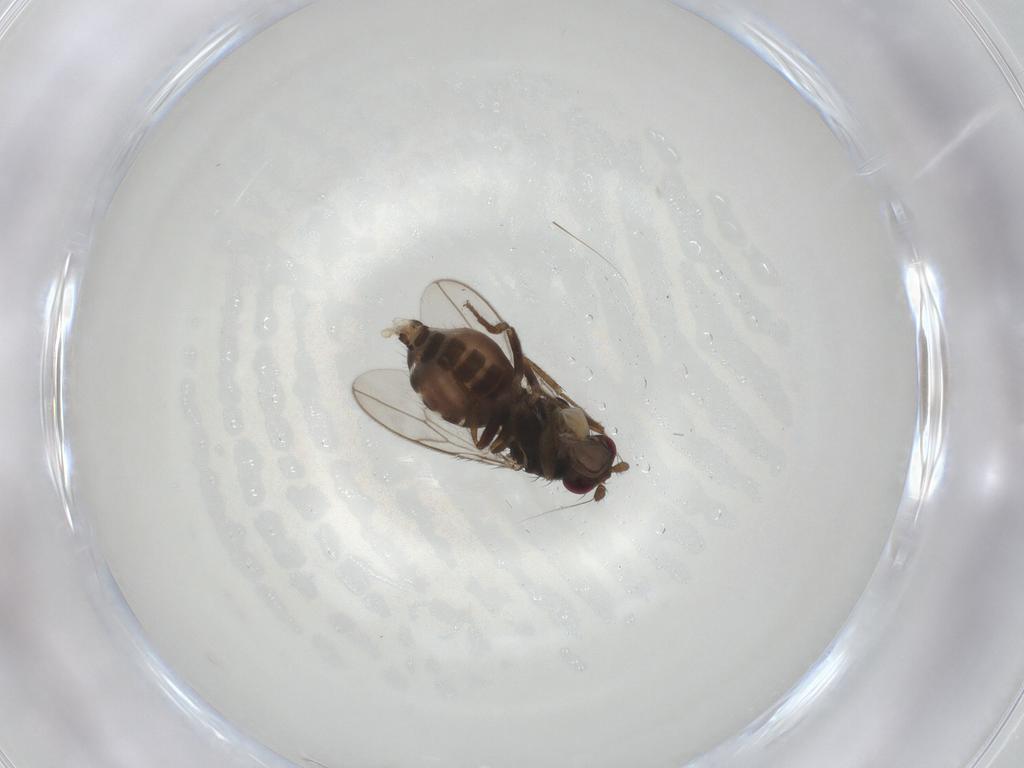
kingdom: Animalia
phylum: Arthropoda
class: Insecta
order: Diptera
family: Sphaeroceridae
